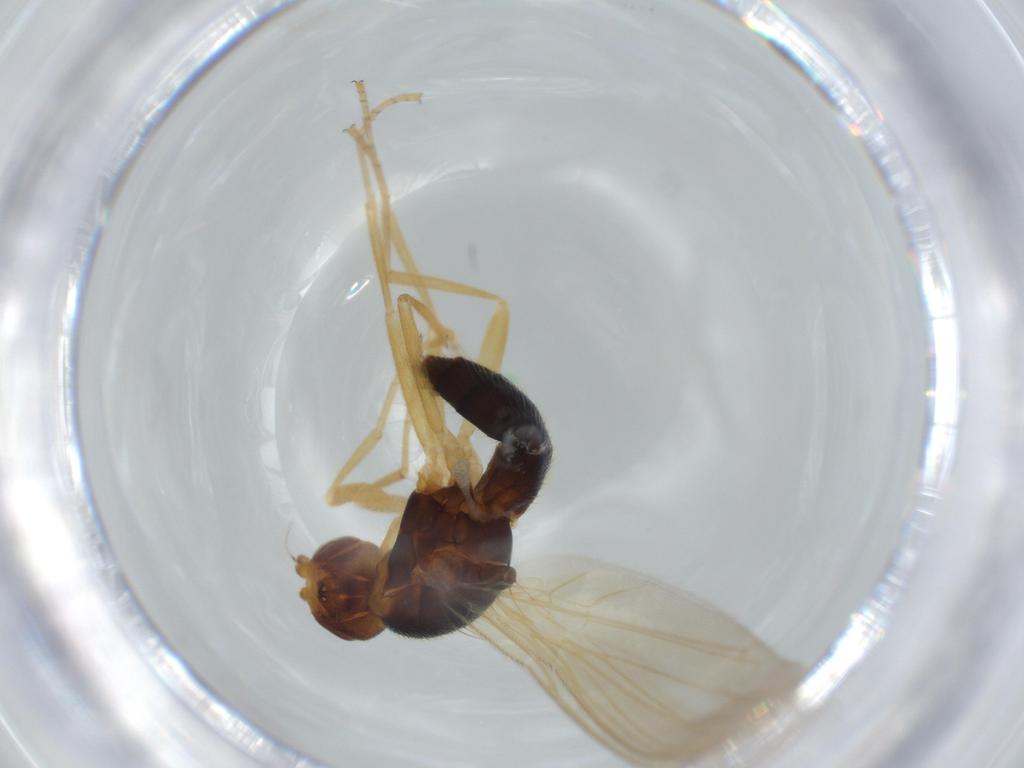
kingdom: Animalia
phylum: Arthropoda
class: Insecta
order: Diptera
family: Psilidae
